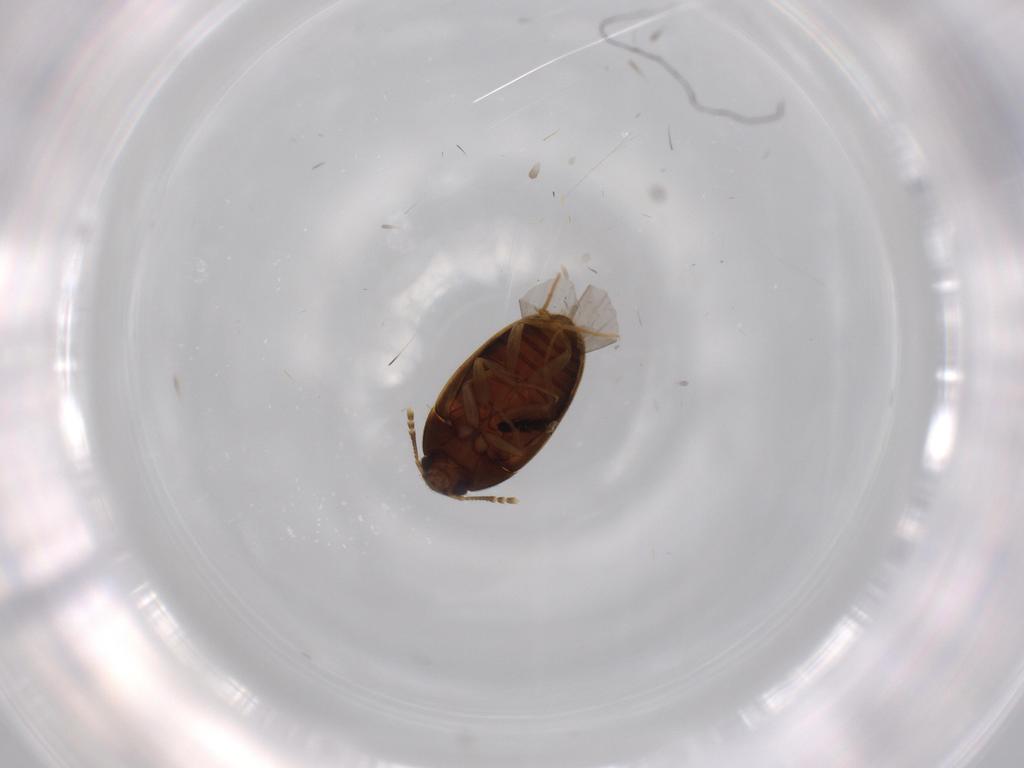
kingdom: Animalia
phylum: Arthropoda
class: Insecta
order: Coleoptera
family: Mycetophagidae
